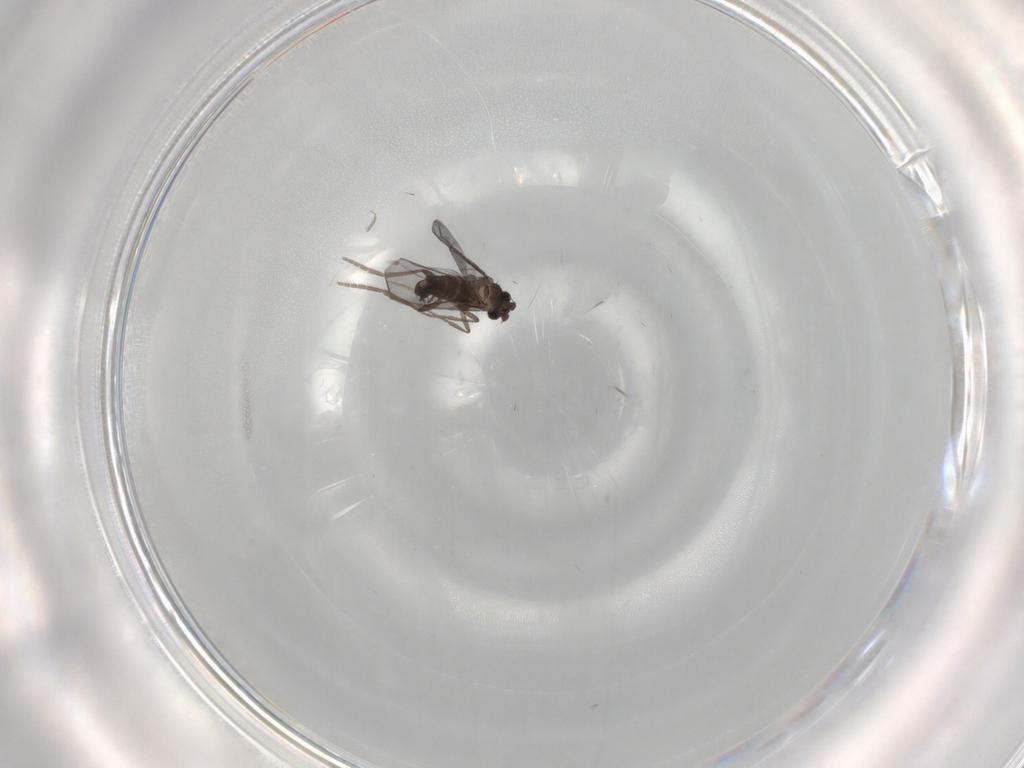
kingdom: Animalia
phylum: Arthropoda
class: Insecta
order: Diptera
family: Phoridae
